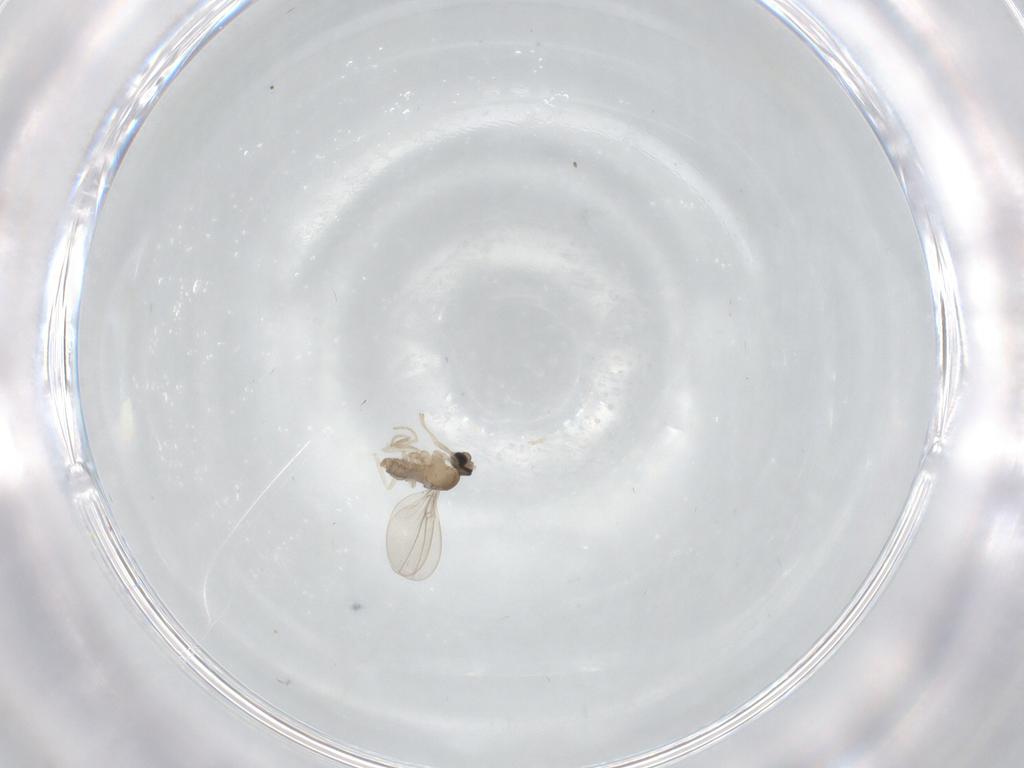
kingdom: Animalia
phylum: Arthropoda
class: Insecta
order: Diptera
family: Cecidomyiidae
